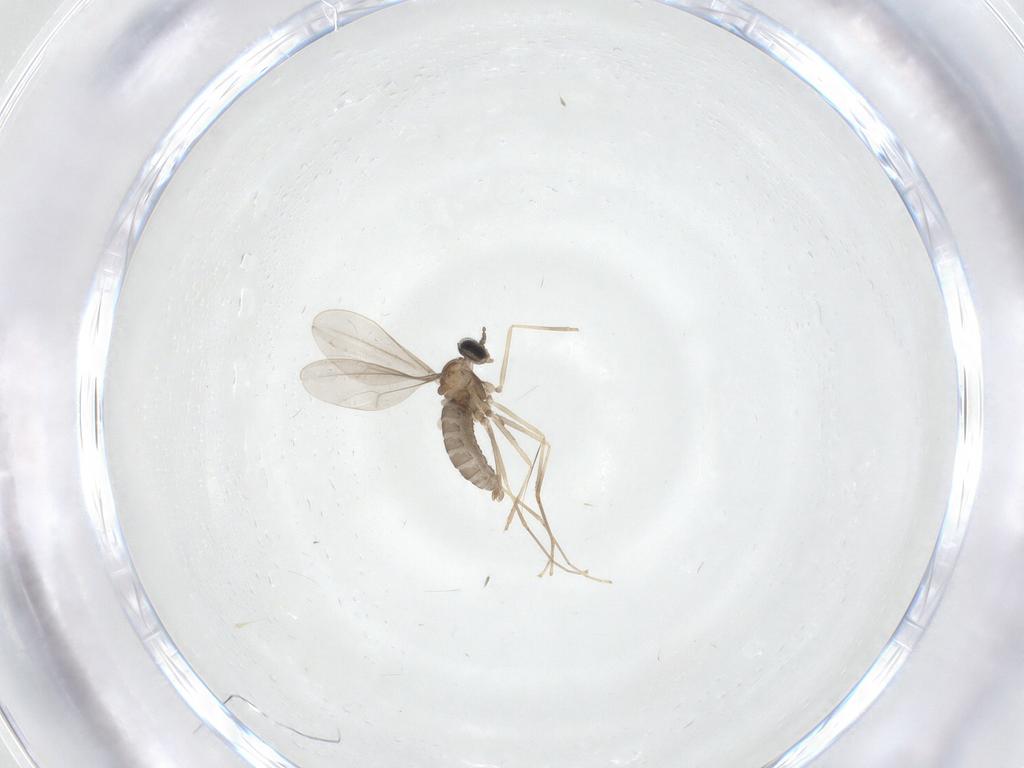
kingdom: Animalia
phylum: Arthropoda
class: Insecta
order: Diptera
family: Cecidomyiidae
